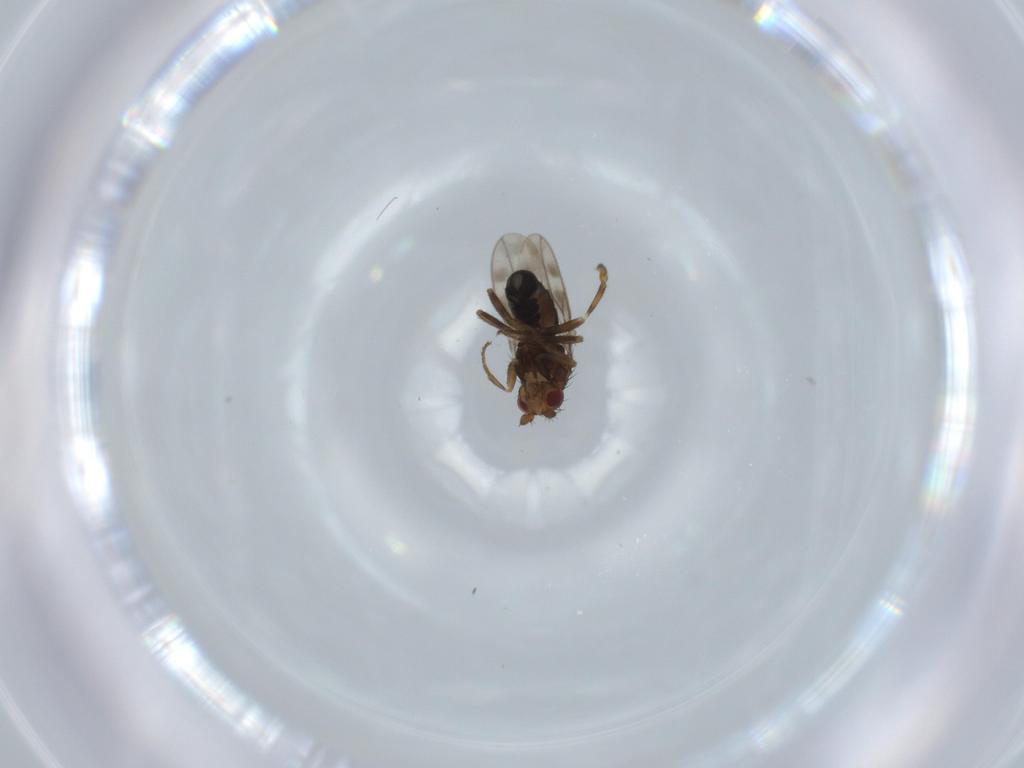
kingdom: Animalia
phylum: Arthropoda
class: Insecta
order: Diptera
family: Sphaeroceridae
